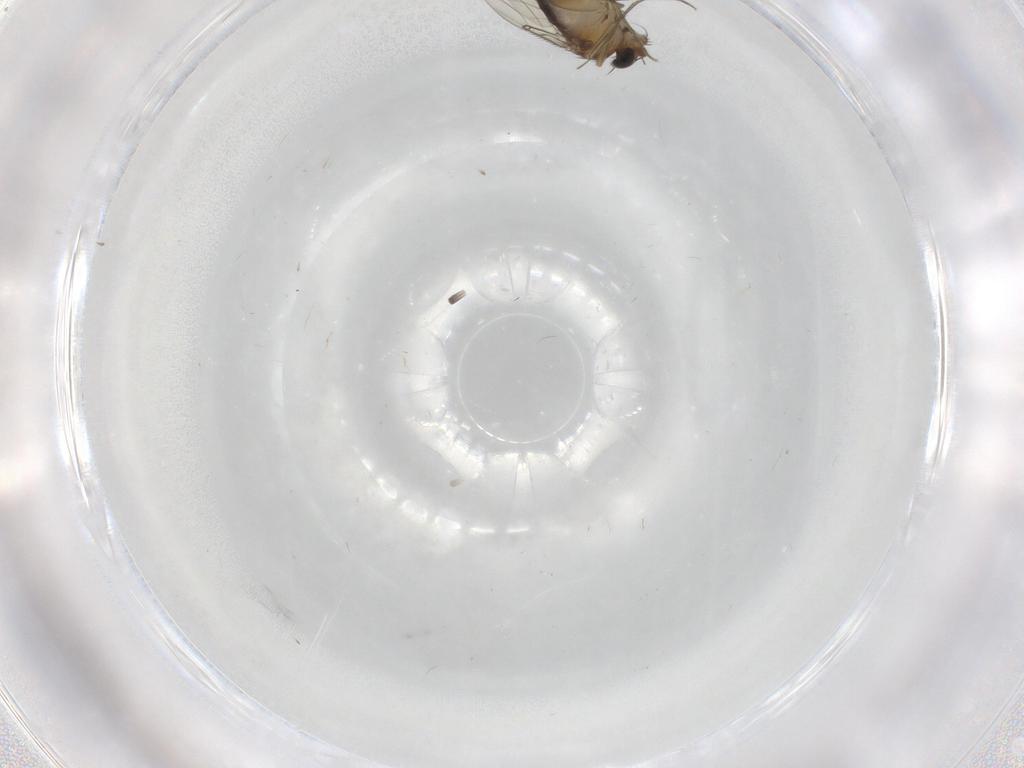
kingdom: Animalia
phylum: Arthropoda
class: Insecta
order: Diptera
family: Phoridae
